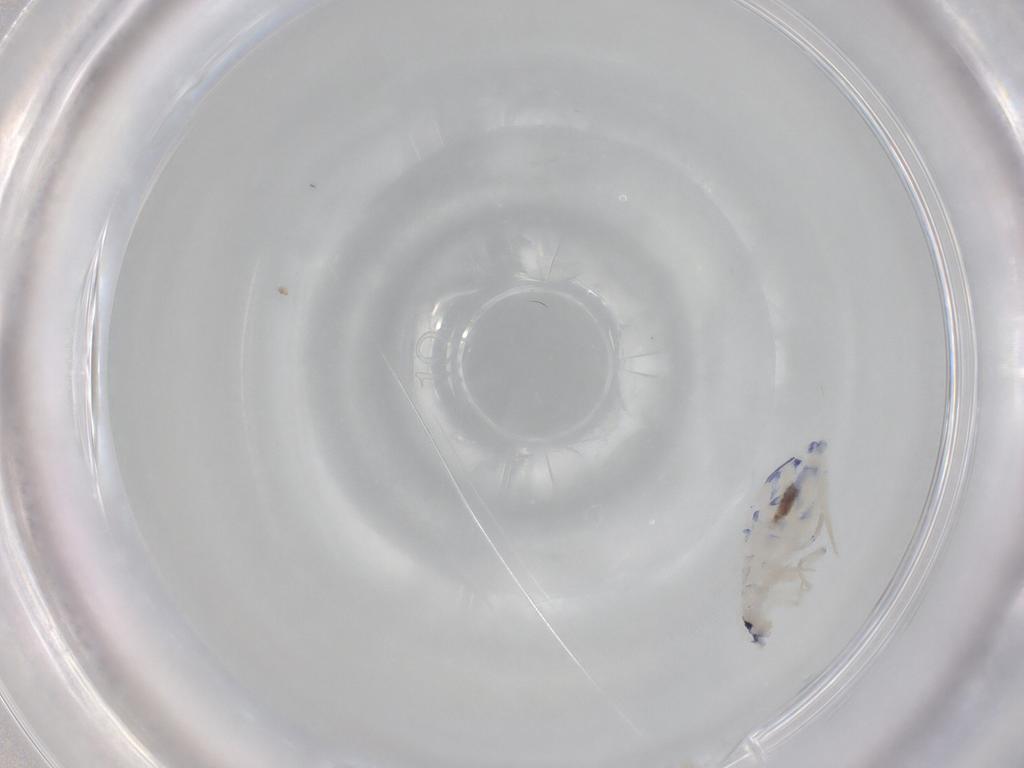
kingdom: Animalia
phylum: Arthropoda
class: Collembola
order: Entomobryomorpha
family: Entomobryidae
